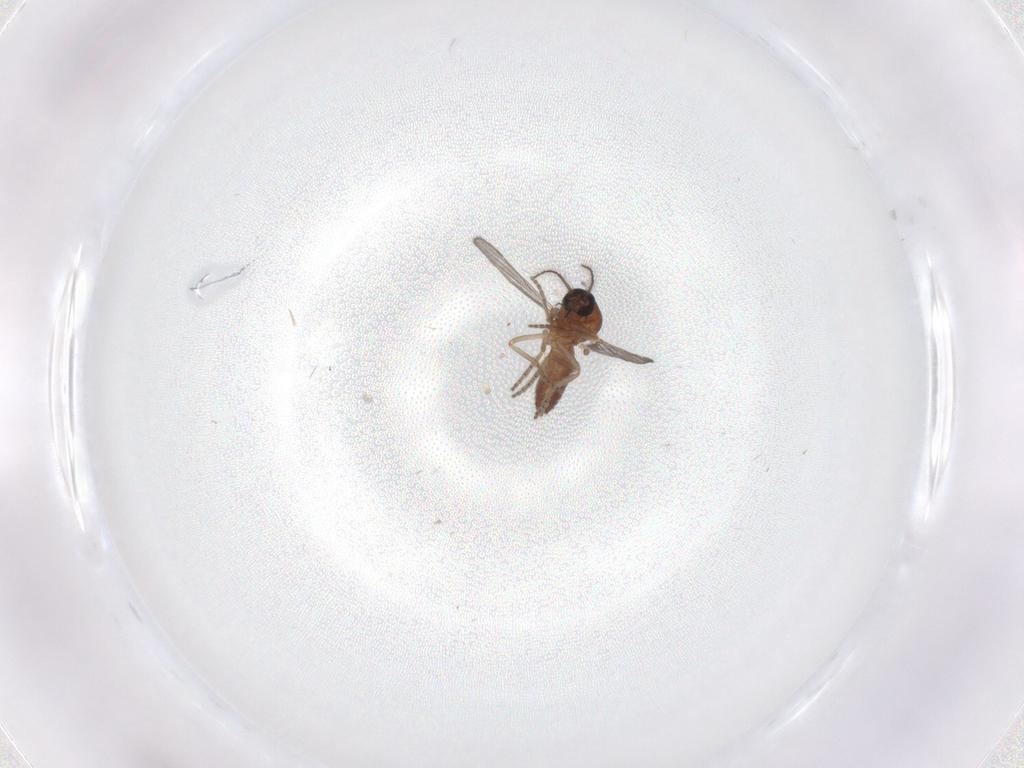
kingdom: Animalia
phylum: Arthropoda
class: Insecta
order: Diptera
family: Ceratopogonidae
